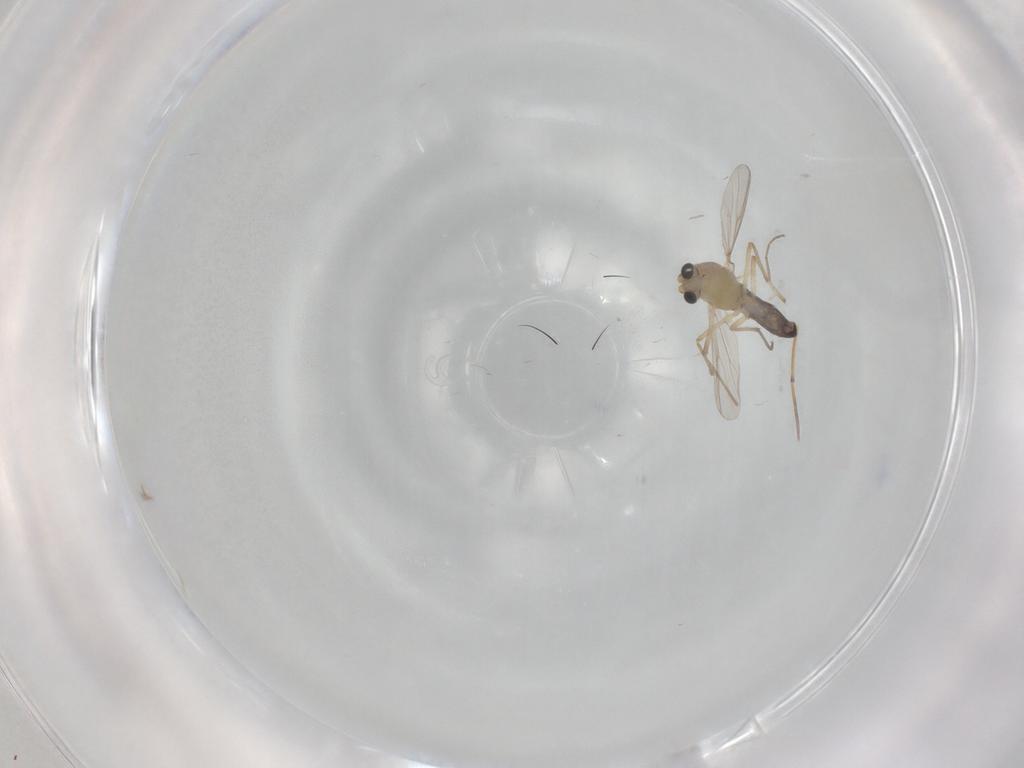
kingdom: Animalia
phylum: Arthropoda
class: Insecta
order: Diptera
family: Chironomidae
